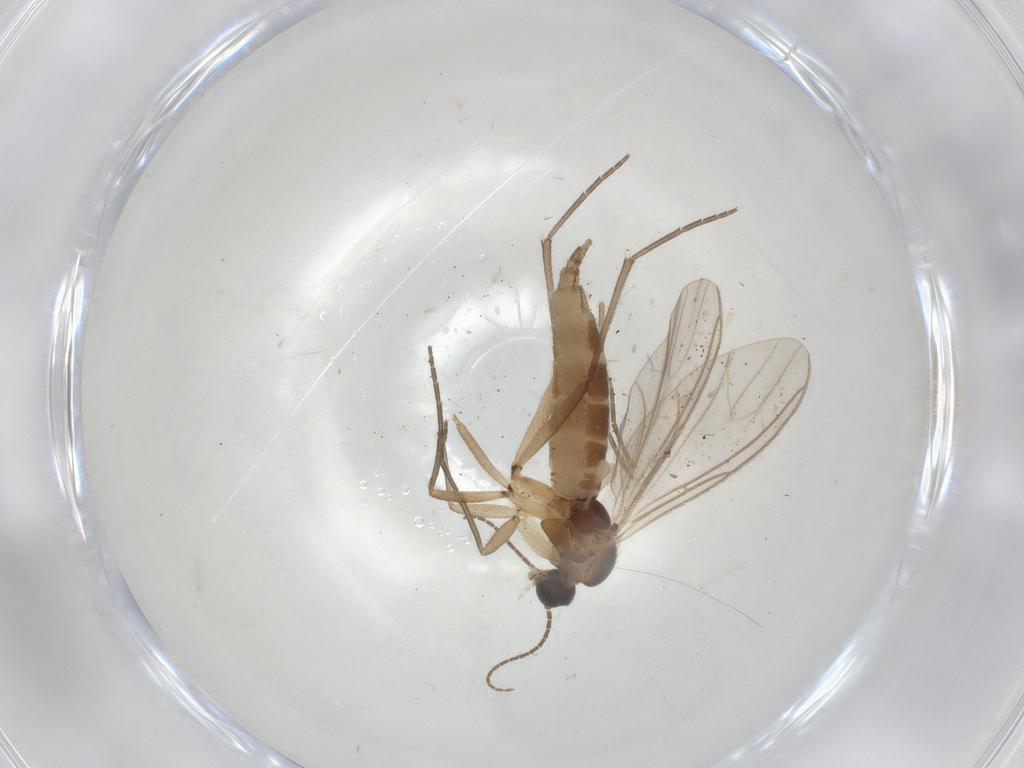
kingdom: Animalia
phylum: Arthropoda
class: Insecta
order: Diptera
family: Sciaridae
